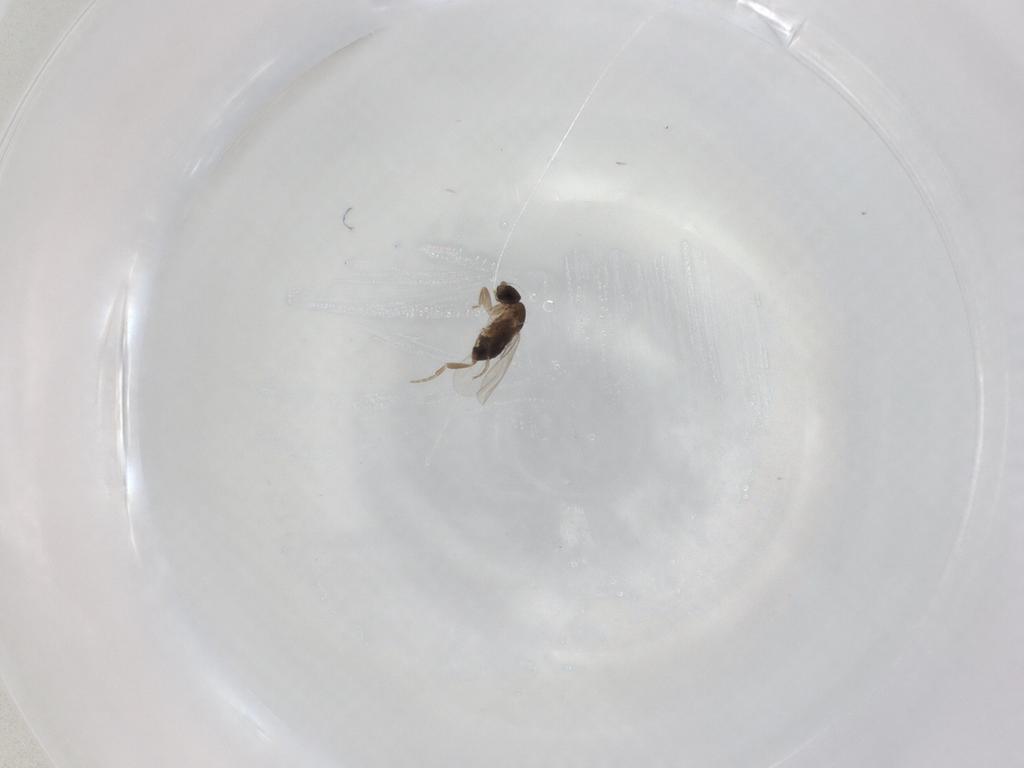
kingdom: Animalia
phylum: Arthropoda
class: Insecta
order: Diptera
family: Phoridae
